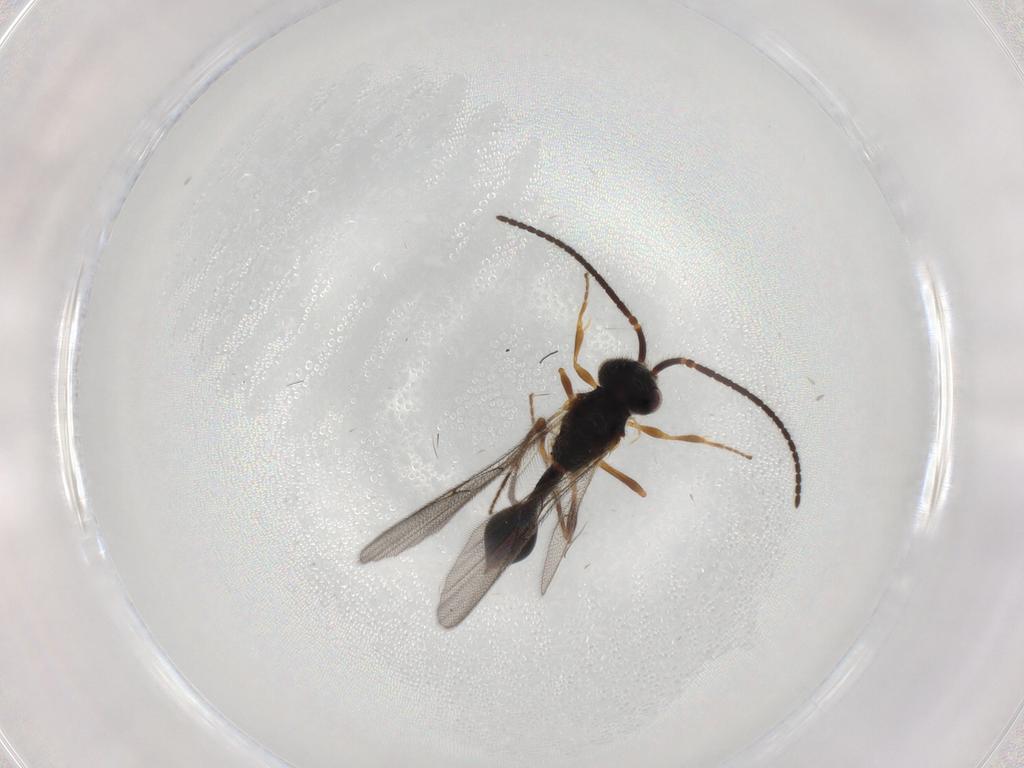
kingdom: Animalia
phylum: Arthropoda
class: Insecta
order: Hymenoptera
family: Diapriidae
